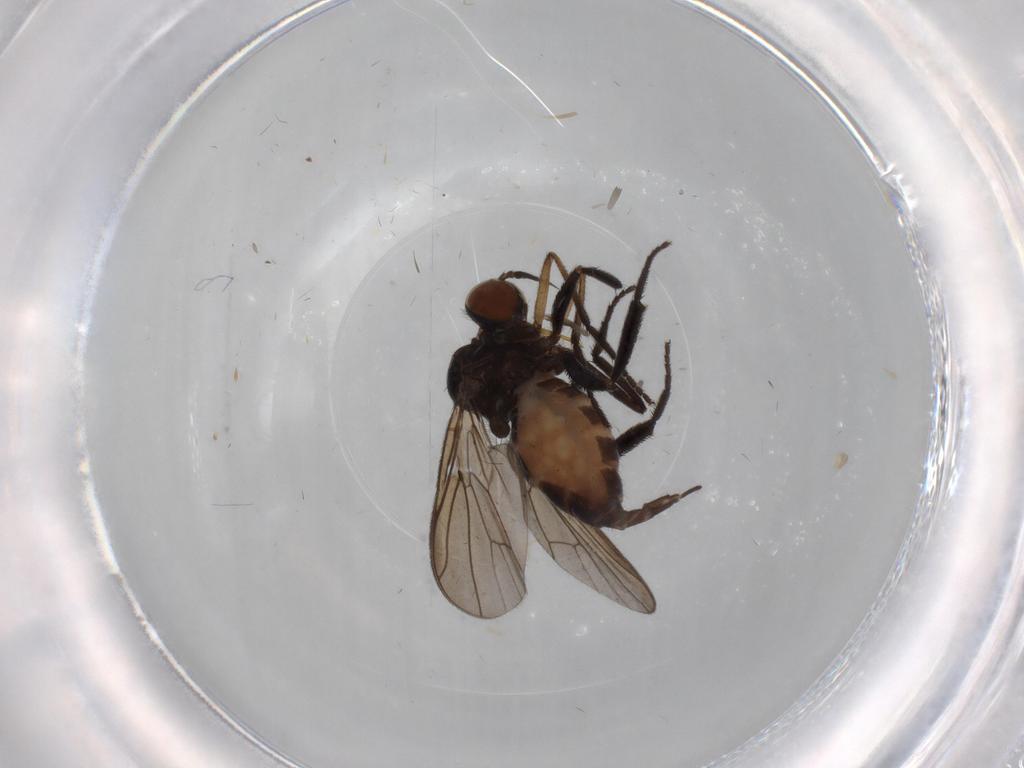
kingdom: Animalia
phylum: Arthropoda
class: Insecta
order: Diptera
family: Empididae
